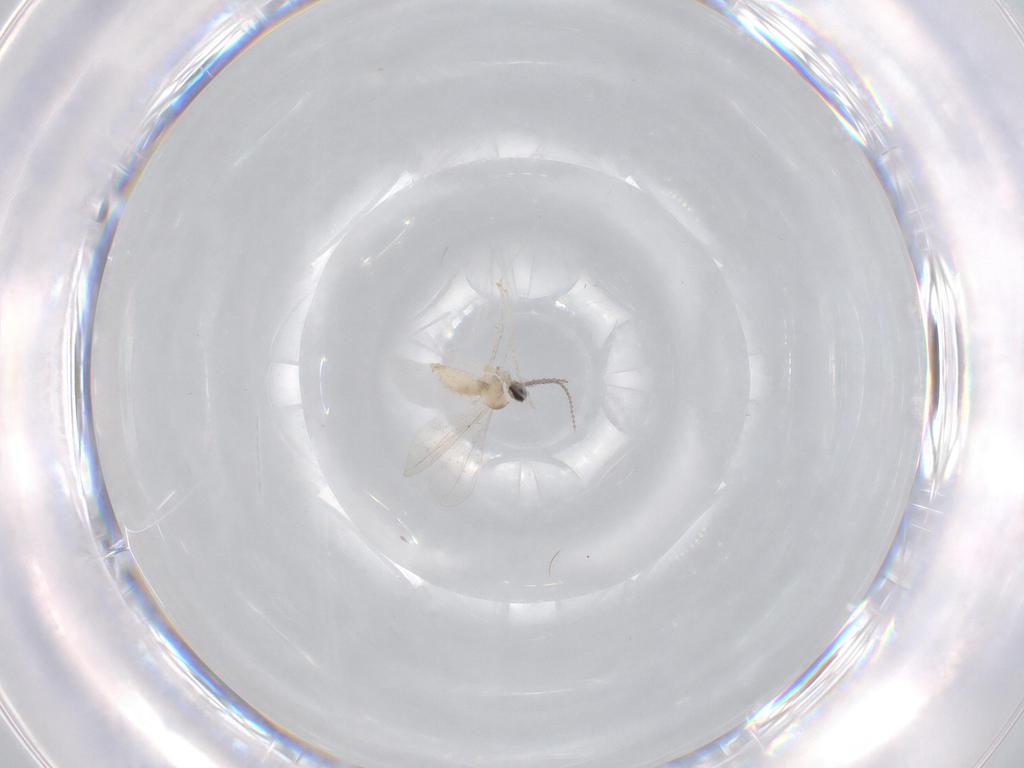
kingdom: Animalia
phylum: Arthropoda
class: Insecta
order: Diptera
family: Cecidomyiidae
